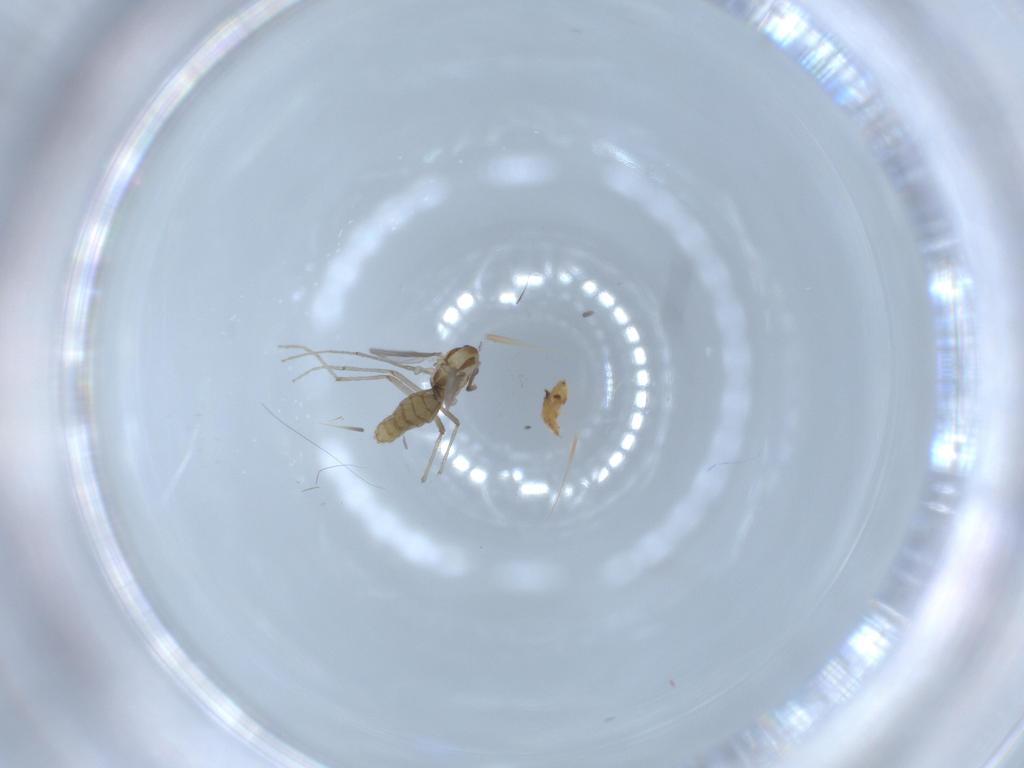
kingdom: Animalia
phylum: Arthropoda
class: Insecta
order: Diptera
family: Chironomidae
